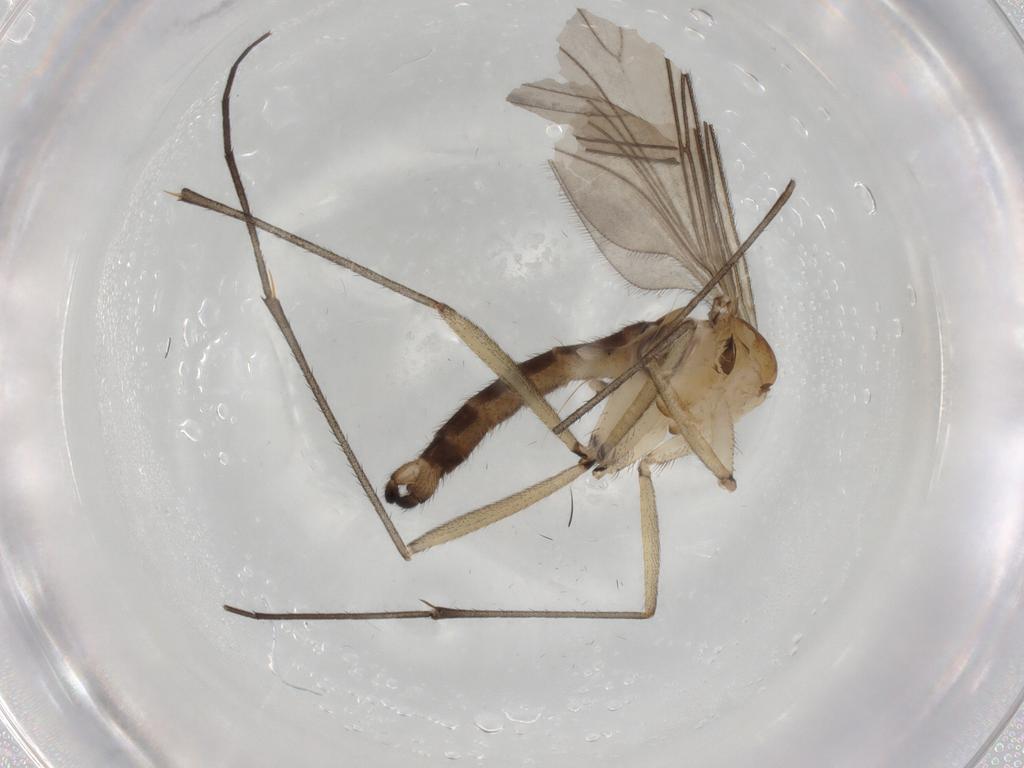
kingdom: Animalia
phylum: Arthropoda
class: Insecta
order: Diptera
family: Sciaridae
